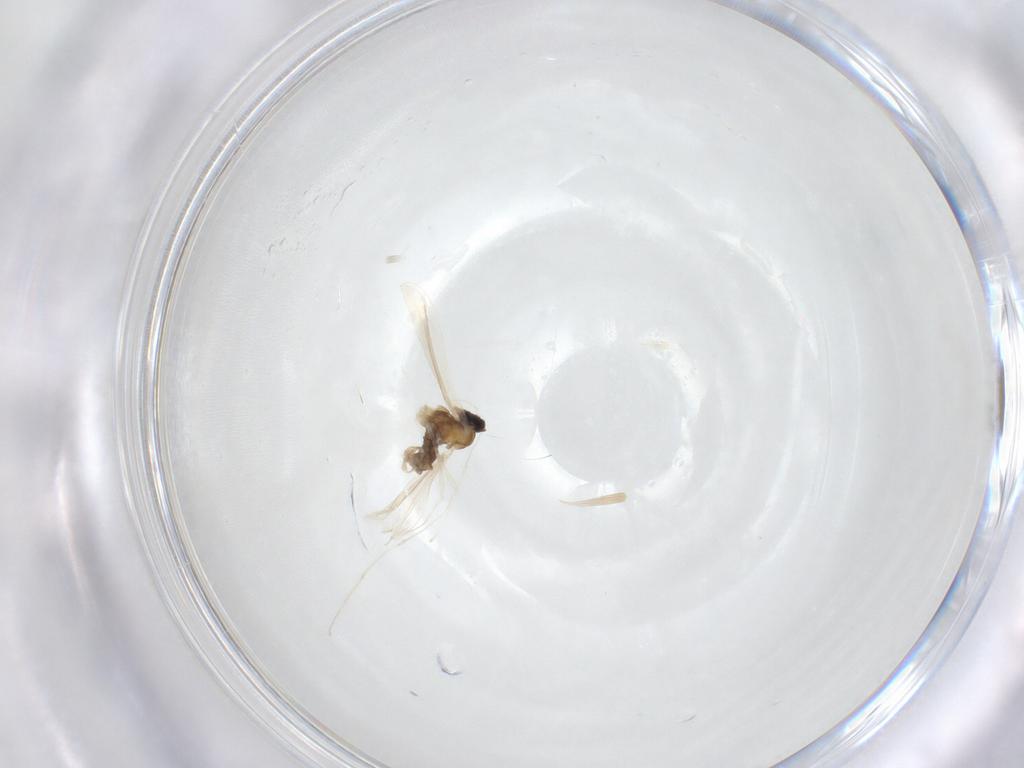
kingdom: Animalia
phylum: Arthropoda
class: Insecta
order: Diptera
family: Cecidomyiidae
